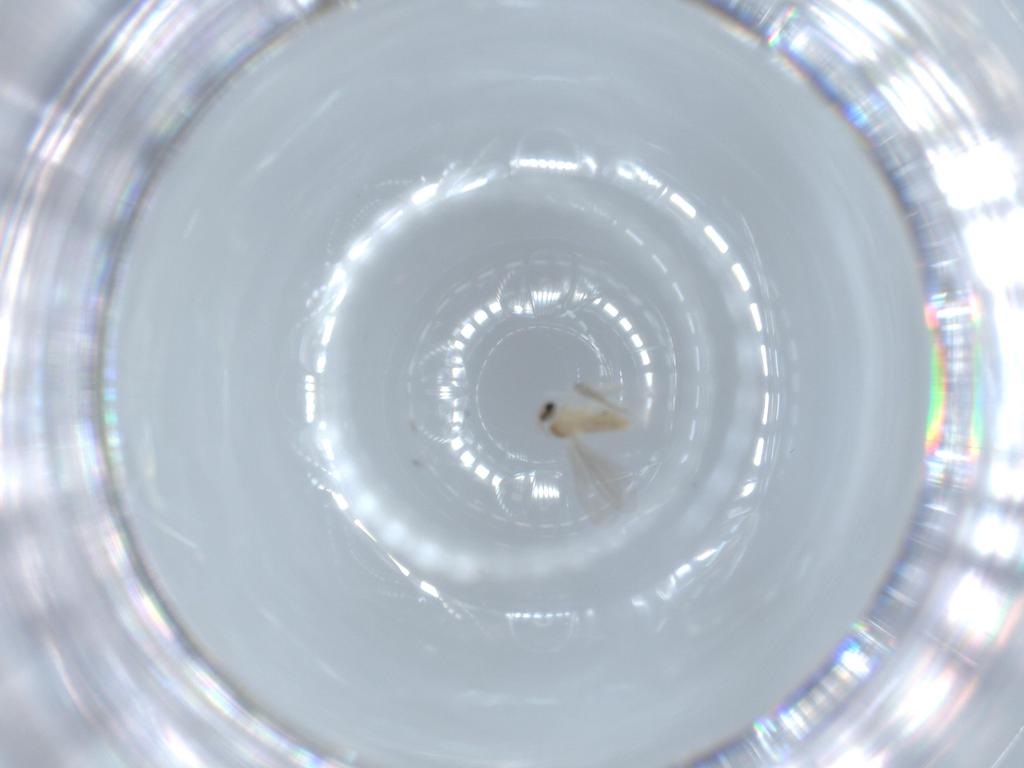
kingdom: Animalia
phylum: Arthropoda
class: Insecta
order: Diptera
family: Cecidomyiidae
